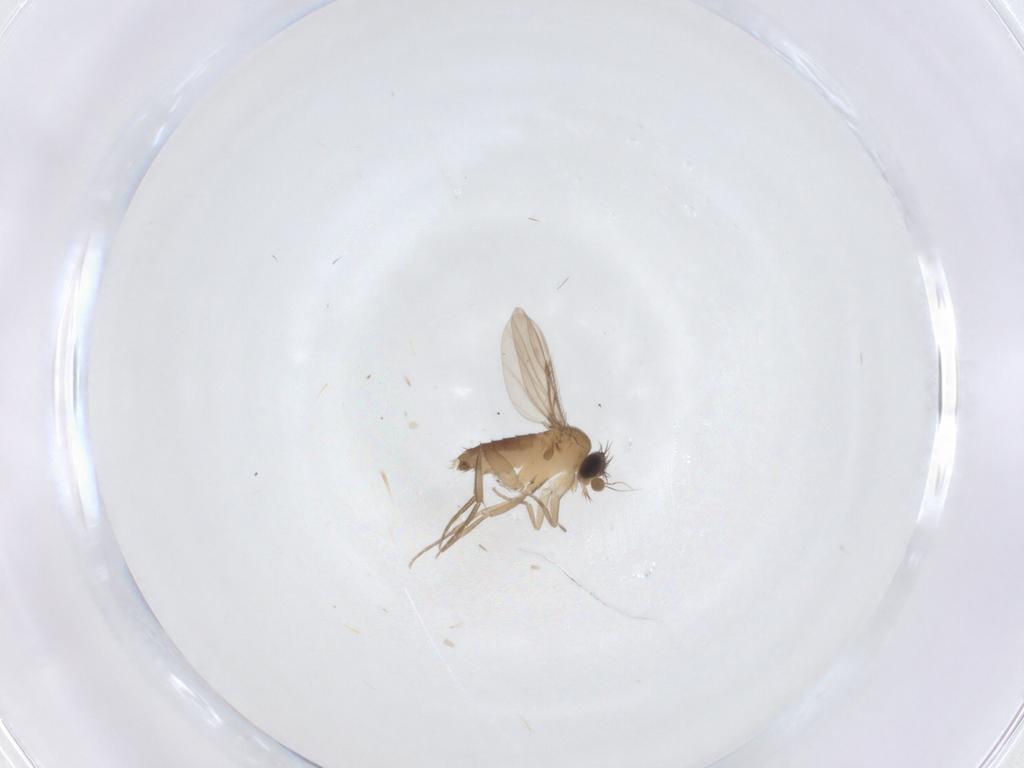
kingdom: Animalia
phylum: Arthropoda
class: Insecta
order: Diptera
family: Phoridae
